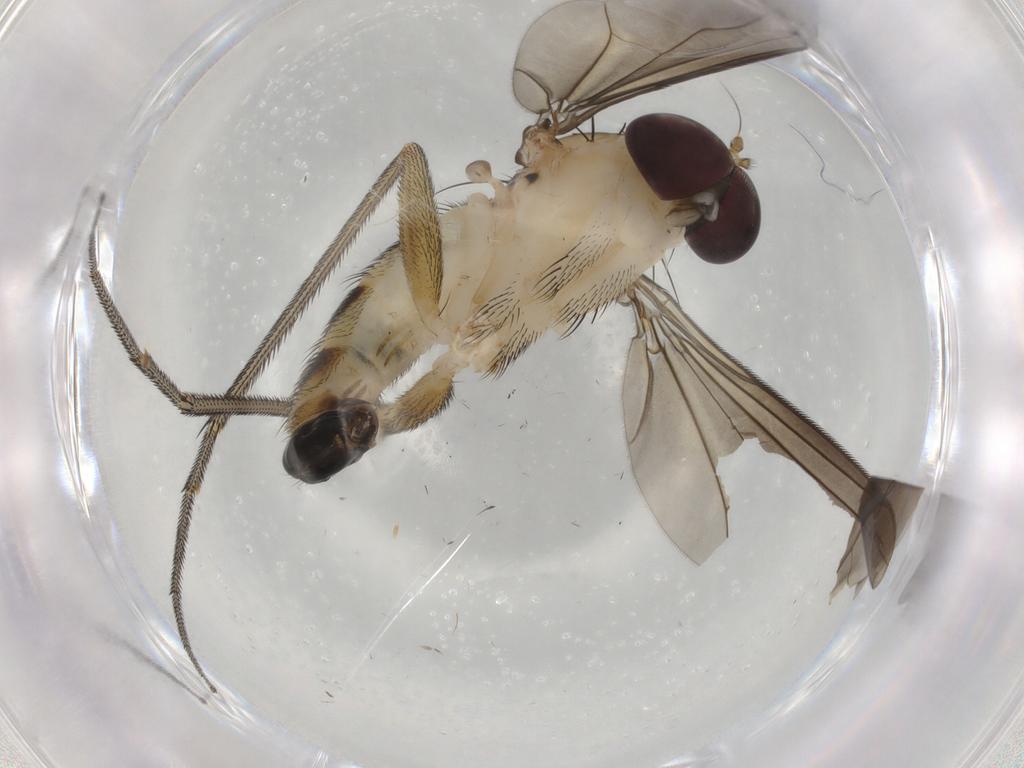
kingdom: Animalia
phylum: Arthropoda
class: Insecta
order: Diptera
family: Dolichopodidae
